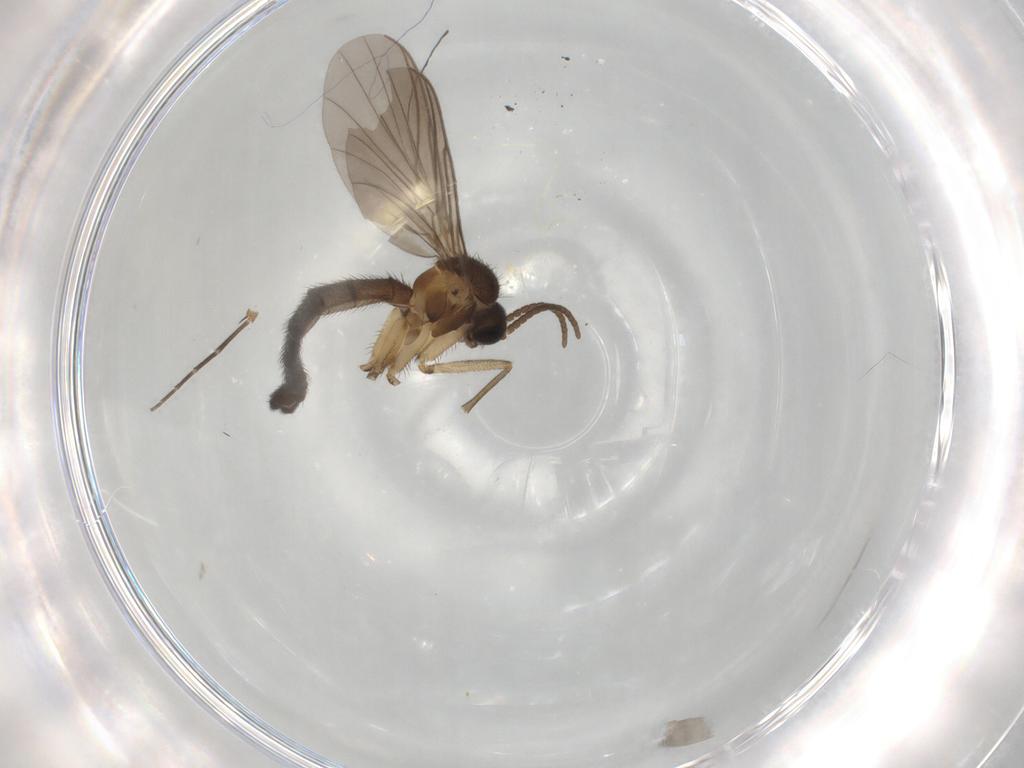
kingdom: Animalia
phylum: Arthropoda
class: Insecta
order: Diptera
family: Keroplatidae
